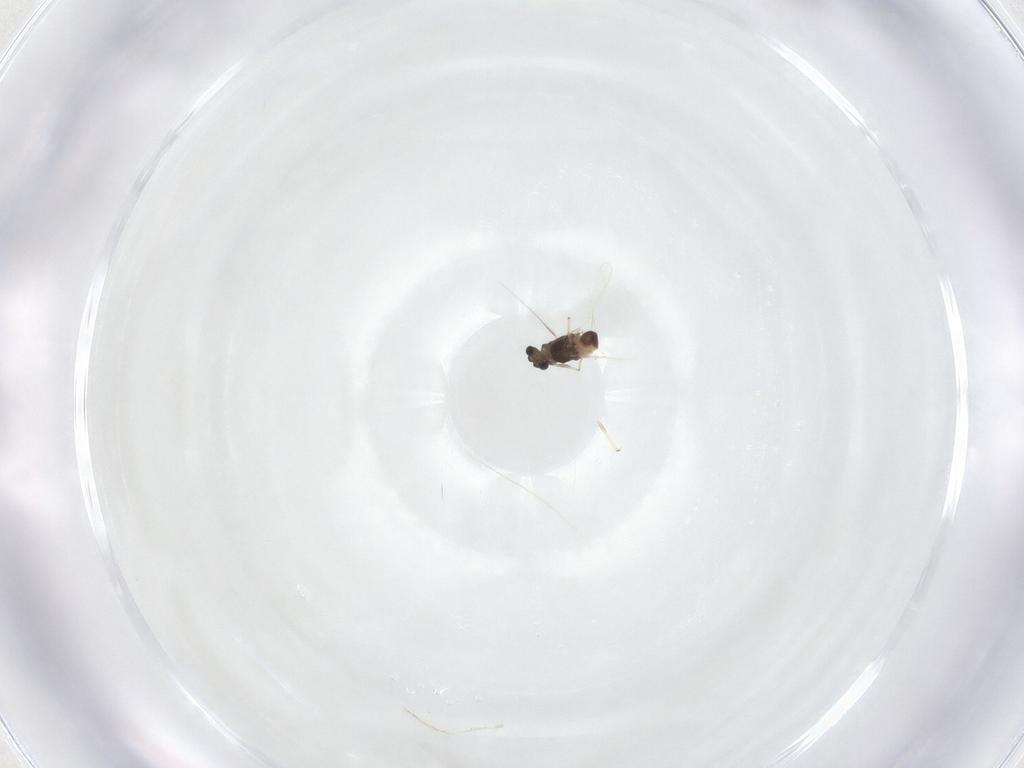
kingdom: Animalia
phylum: Arthropoda
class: Insecta
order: Diptera
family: Chironomidae
